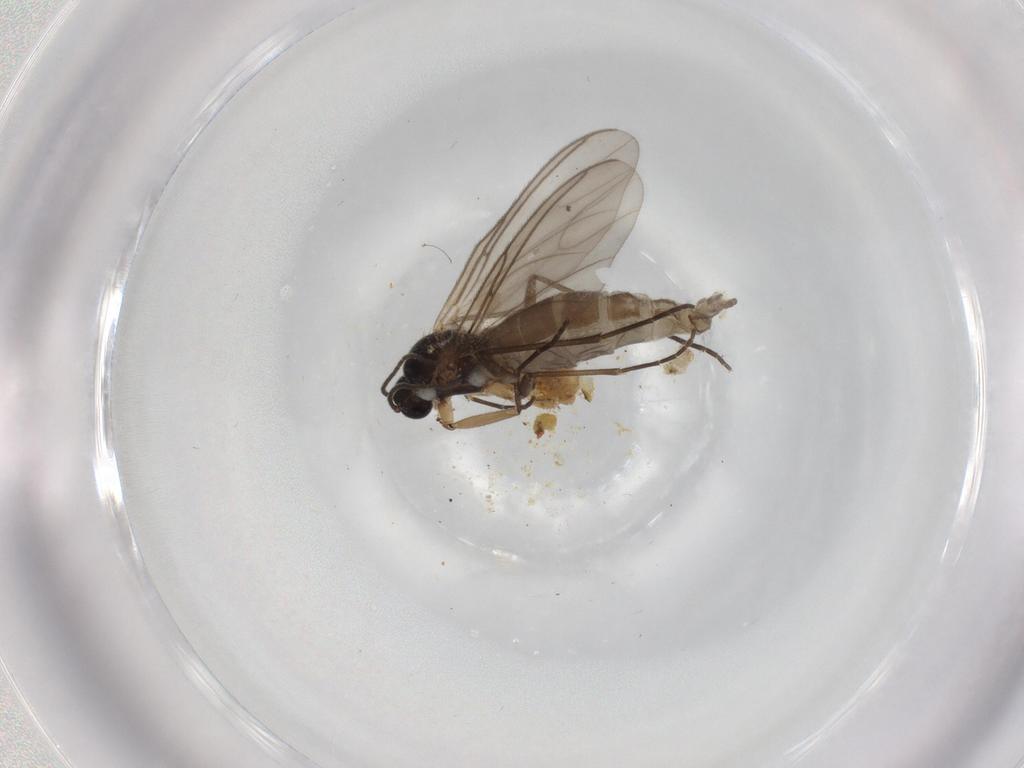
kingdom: Animalia
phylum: Arthropoda
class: Insecta
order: Diptera
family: Sciaridae
